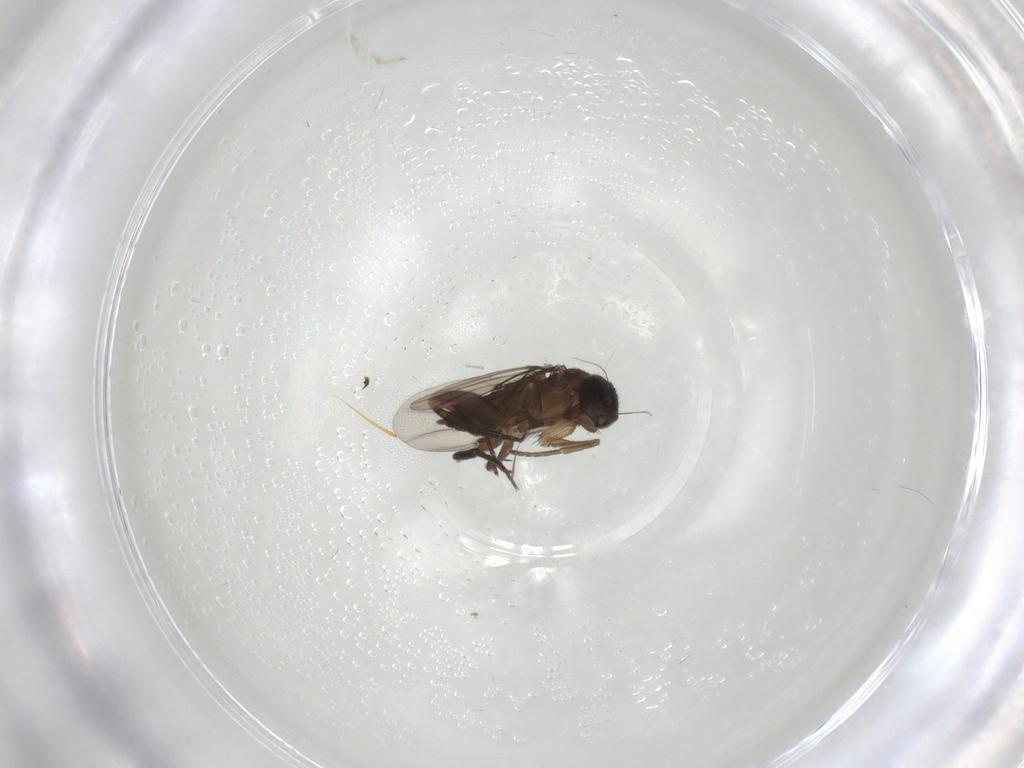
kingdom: Animalia
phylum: Arthropoda
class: Insecta
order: Diptera
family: Phoridae
